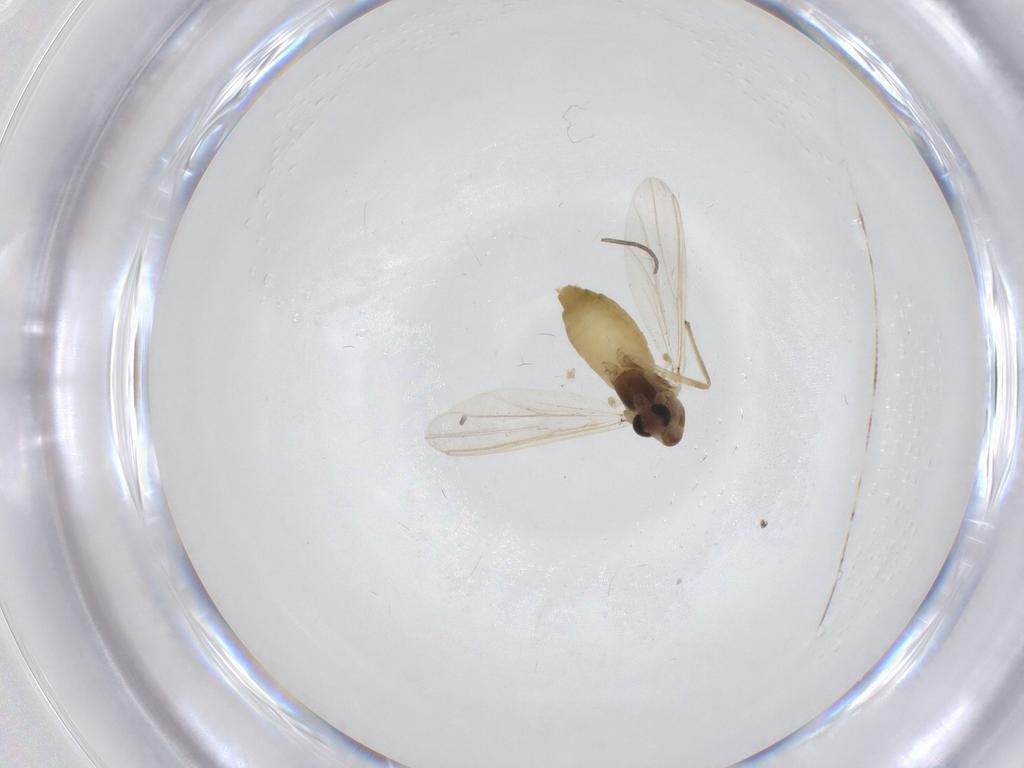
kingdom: Animalia
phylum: Arthropoda
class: Insecta
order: Diptera
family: Chironomidae
